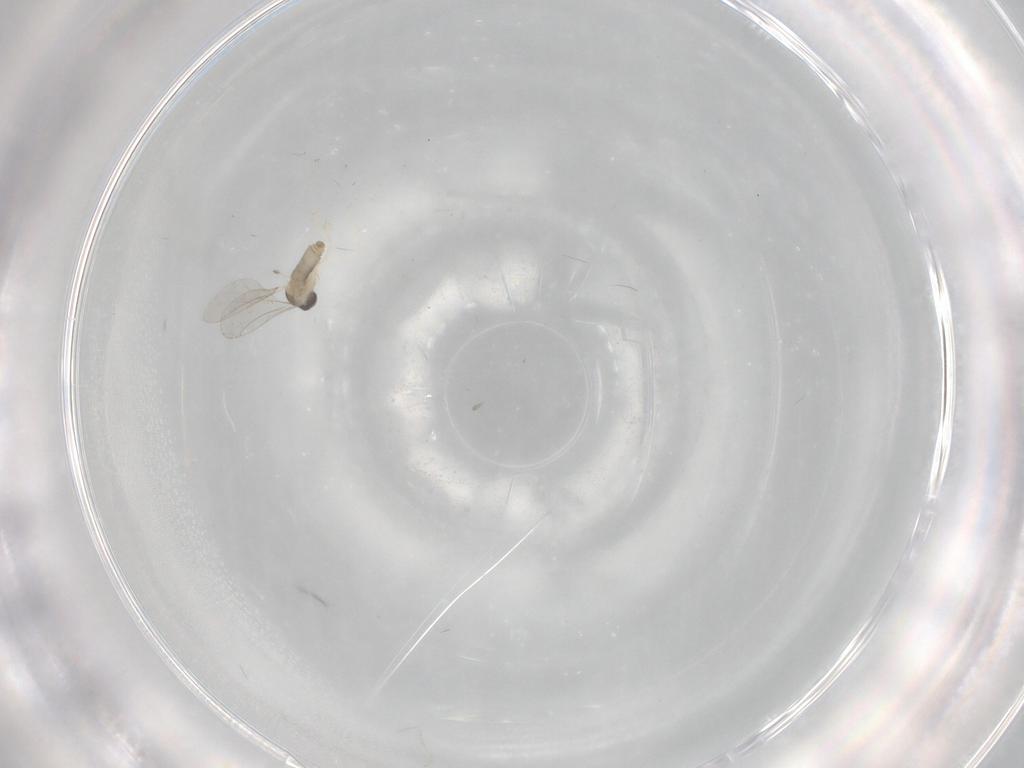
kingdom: Animalia
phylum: Arthropoda
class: Insecta
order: Diptera
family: Cecidomyiidae
